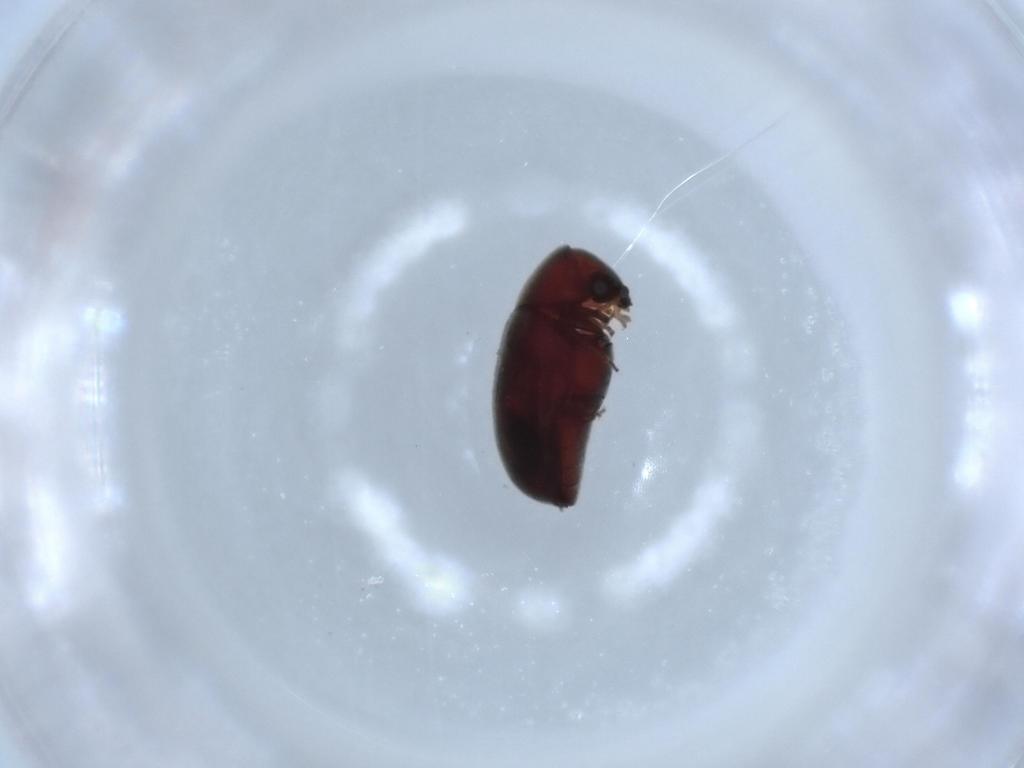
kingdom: Animalia
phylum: Arthropoda
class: Insecta
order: Coleoptera
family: Ptinidae
